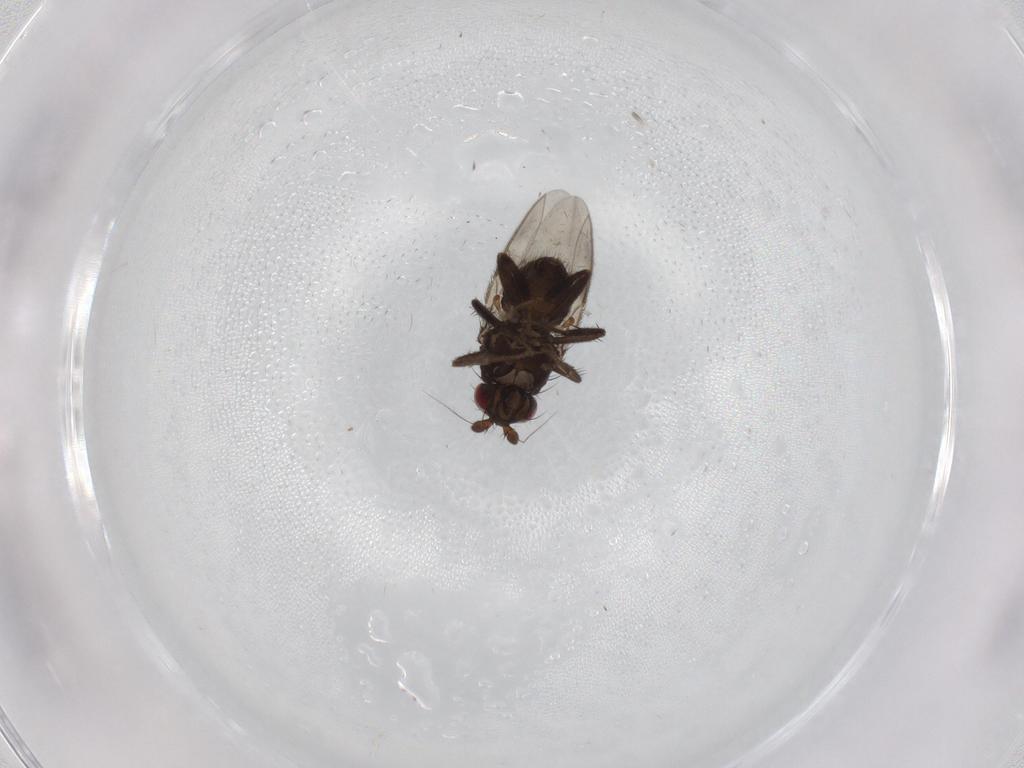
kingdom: Animalia
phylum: Arthropoda
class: Insecta
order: Diptera
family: Sphaeroceridae
